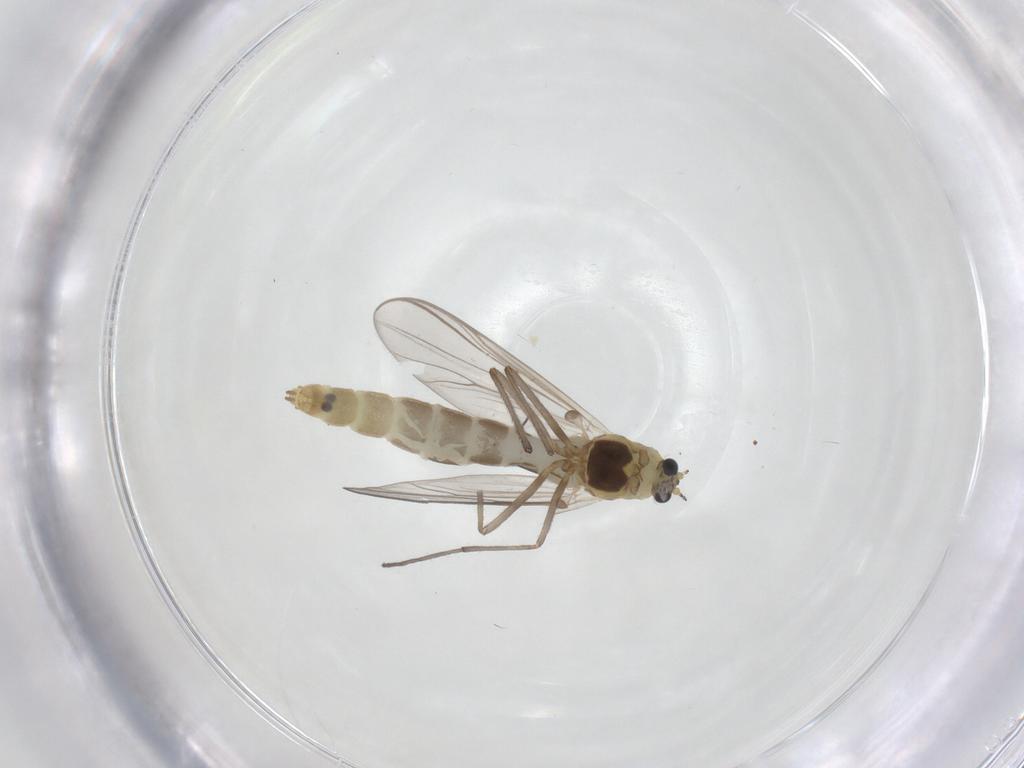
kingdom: Animalia
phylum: Arthropoda
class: Insecta
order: Diptera
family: Chironomidae
